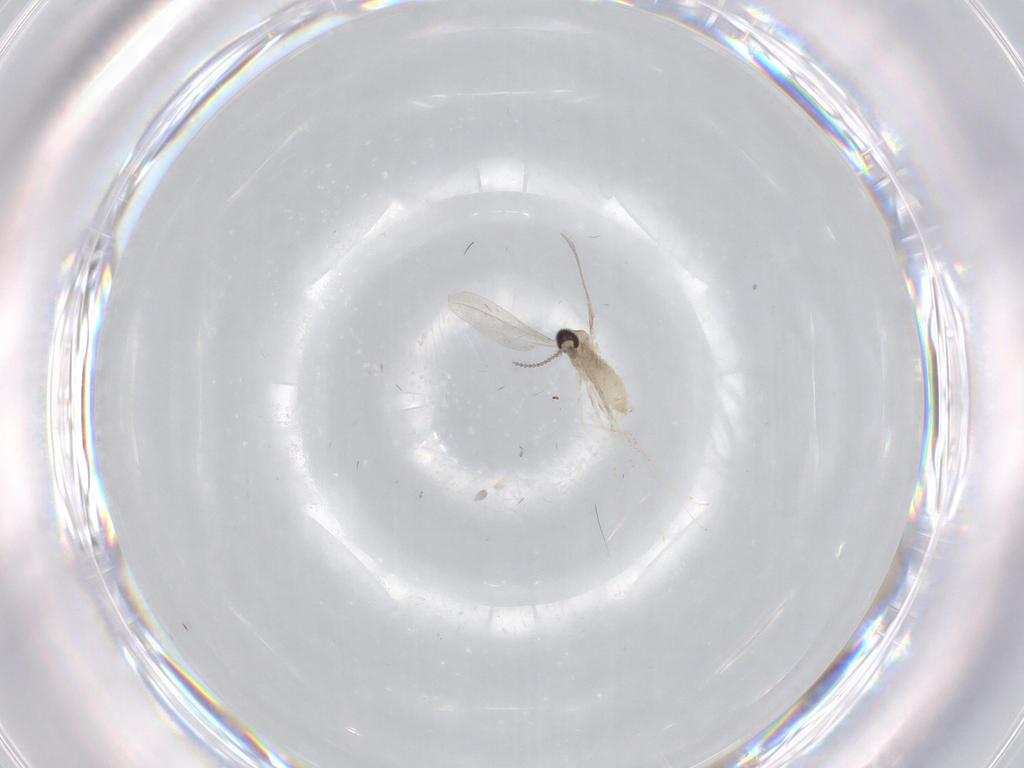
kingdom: Animalia
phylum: Arthropoda
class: Insecta
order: Diptera
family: Cecidomyiidae
